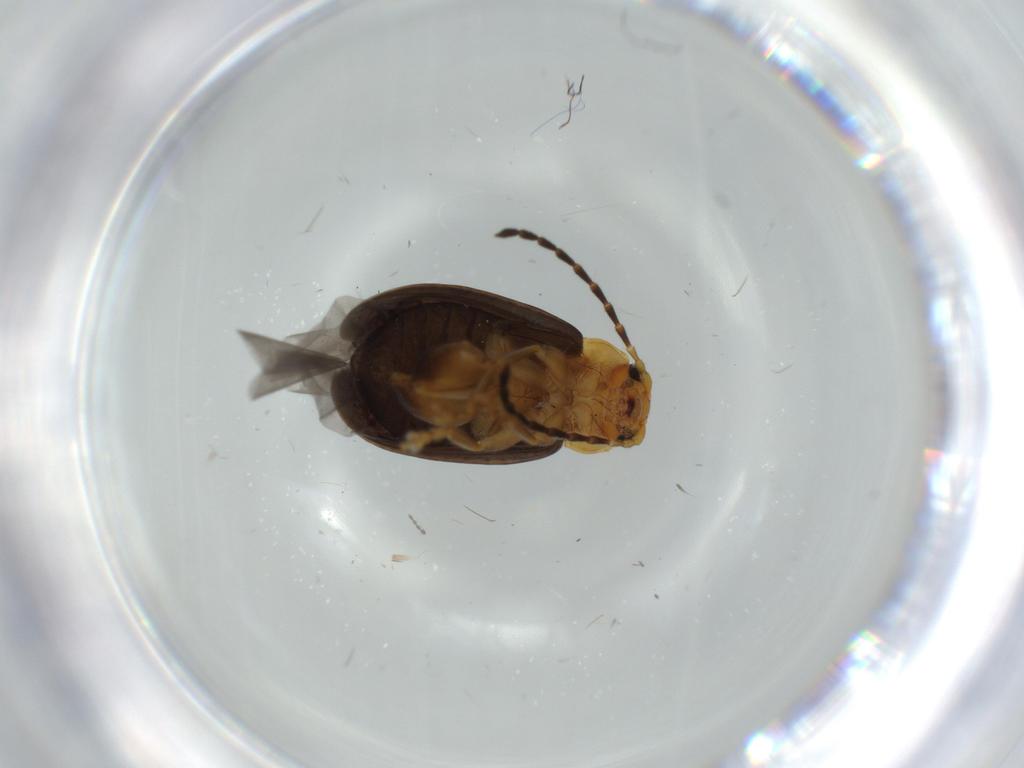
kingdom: Animalia
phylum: Arthropoda
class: Insecta
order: Coleoptera
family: Chrysomelidae
